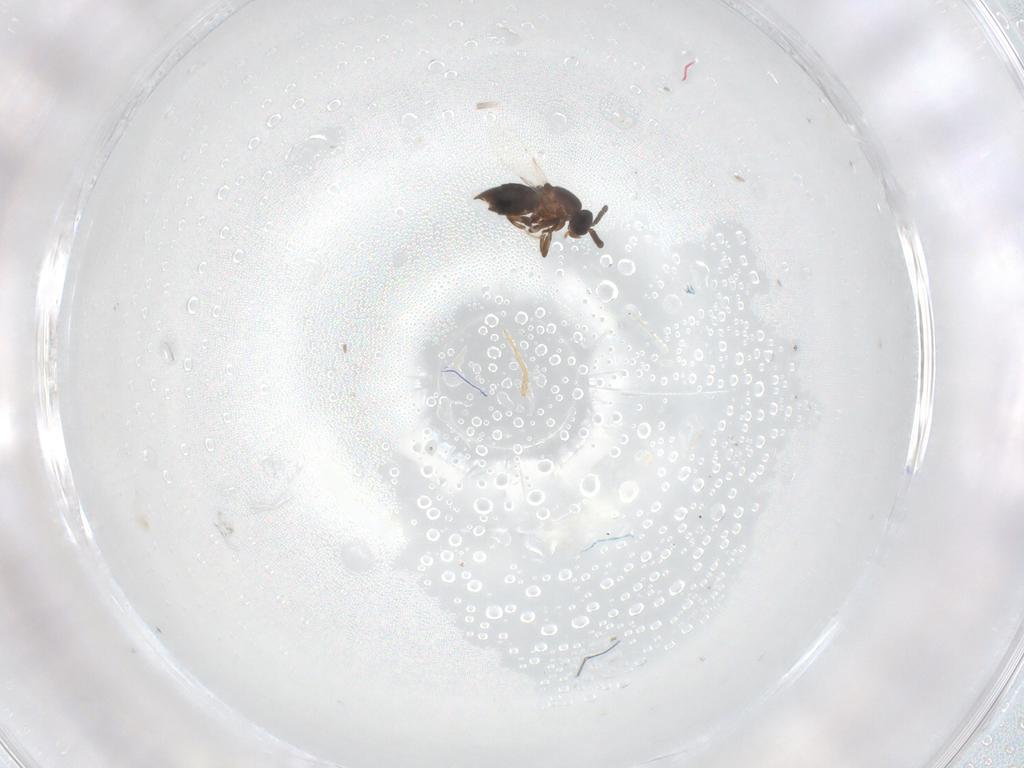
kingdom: Animalia
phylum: Arthropoda
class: Insecta
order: Diptera
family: Scatopsidae
